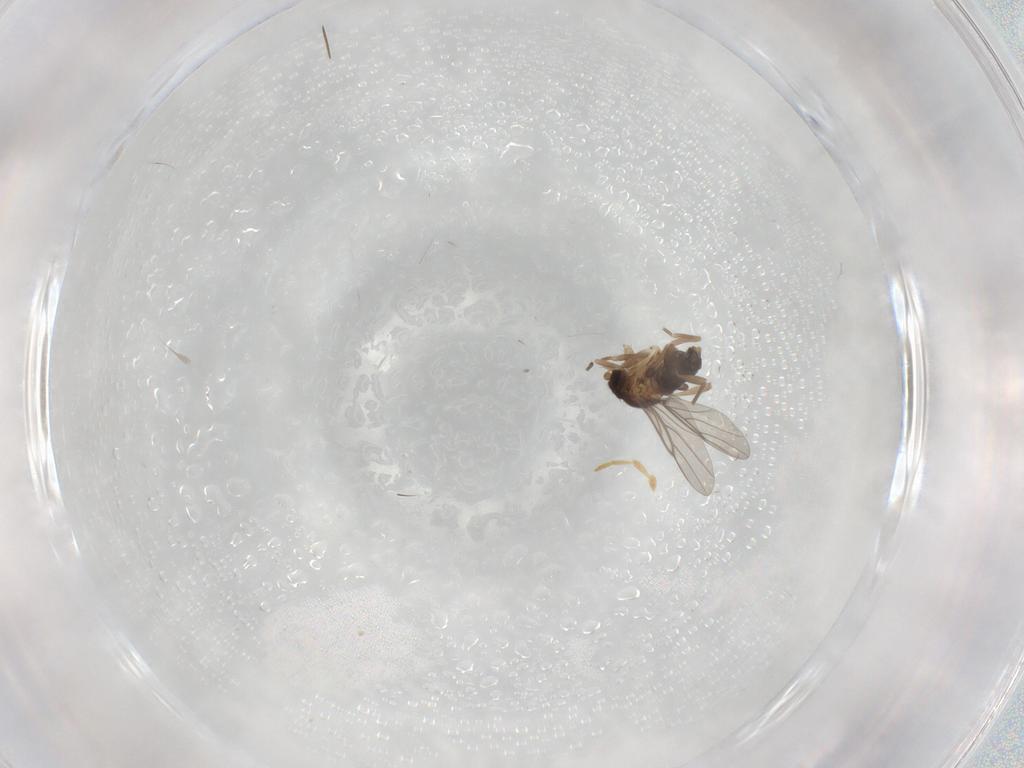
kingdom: Animalia
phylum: Arthropoda
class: Insecta
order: Diptera
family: Phoridae
